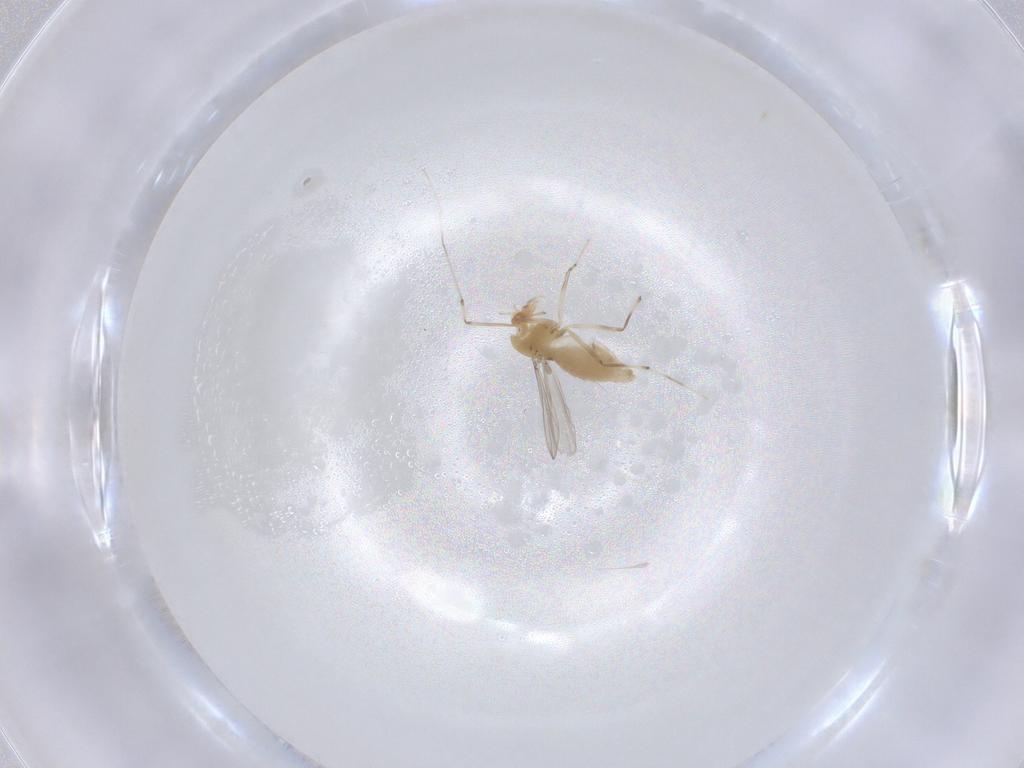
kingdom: Animalia
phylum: Arthropoda
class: Insecta
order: Diptera
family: Chironomidae
